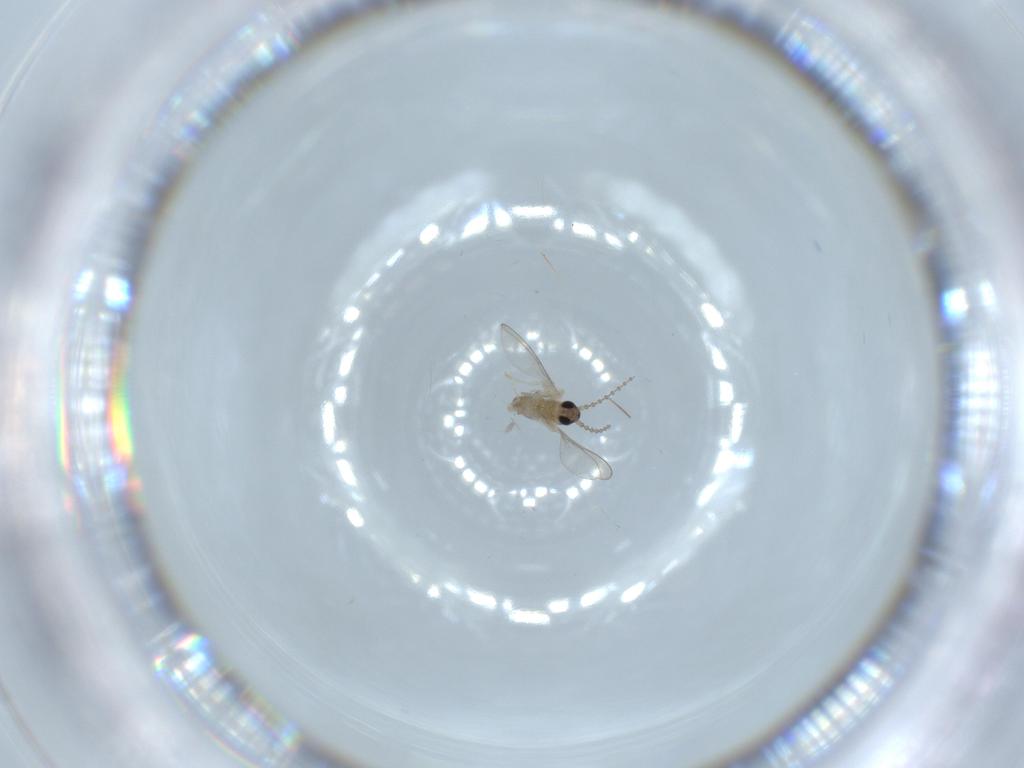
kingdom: Animalia
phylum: Arthropoda
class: Insecta
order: Diptera
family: Cecidomyiidae
